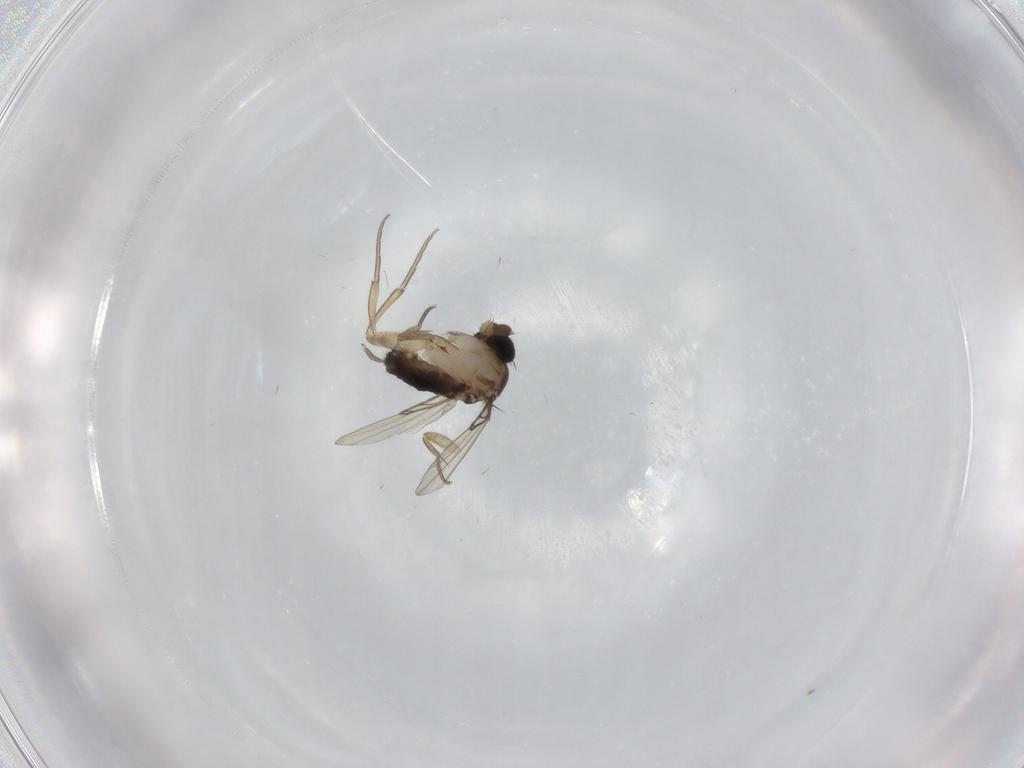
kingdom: Animalia
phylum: Arthropoda
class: Insecta
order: Diptera
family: Phoridae
